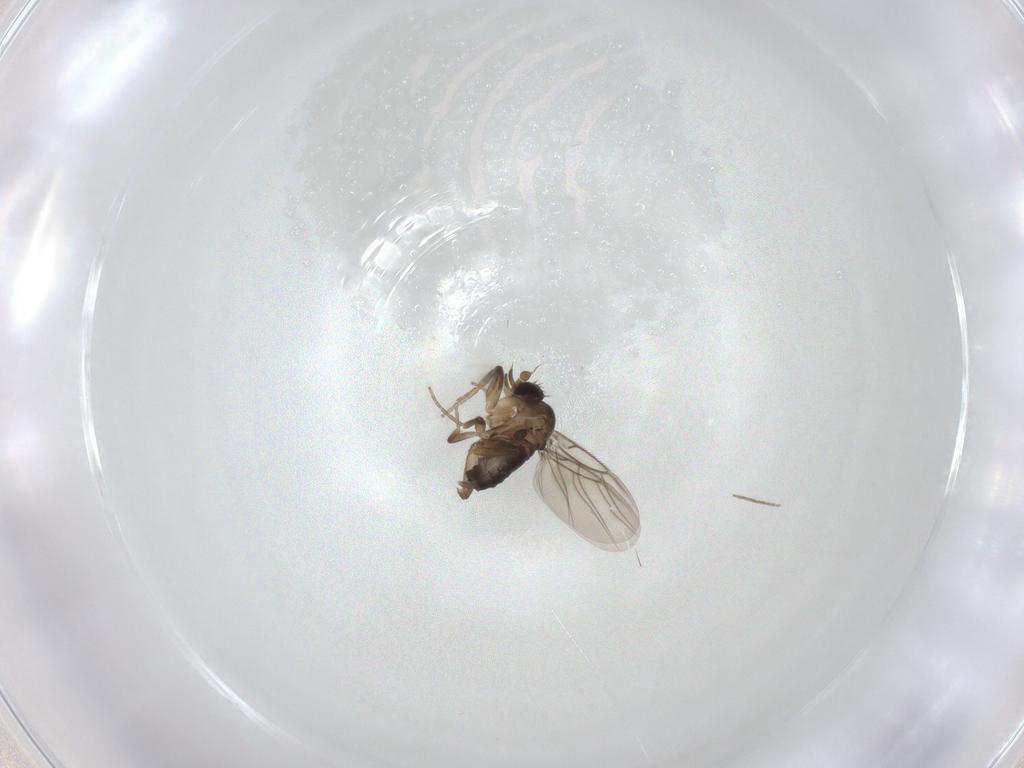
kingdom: Animalia
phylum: Arthropoda
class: Insecta
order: Diptera
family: Phoridae
